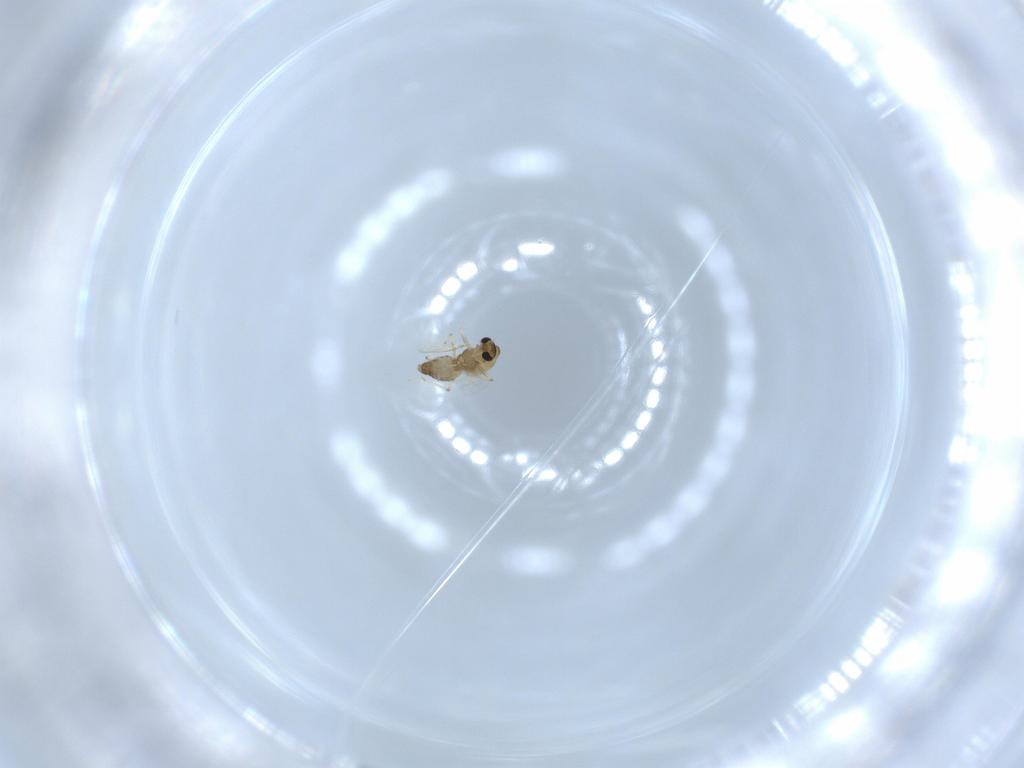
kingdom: Animalia
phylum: Arthropoda
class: Insecta
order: Diptera
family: Chironomidae
